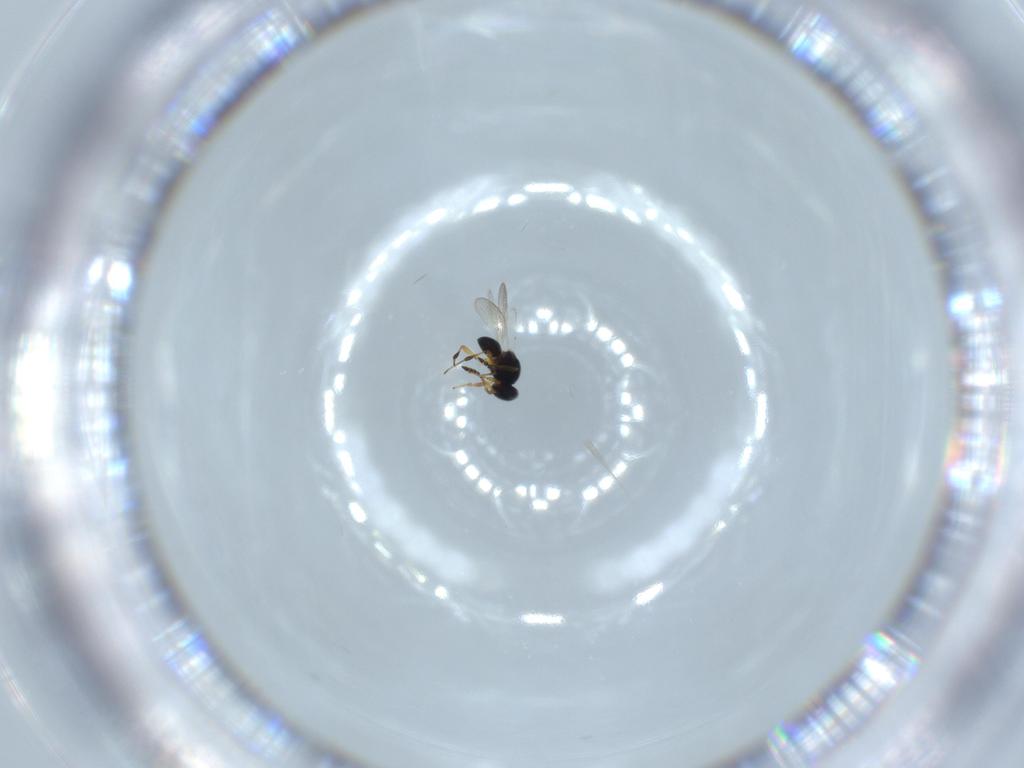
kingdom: Animalia
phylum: Arthropoda
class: Insecta
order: Hymenoptera
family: Platygastridae
